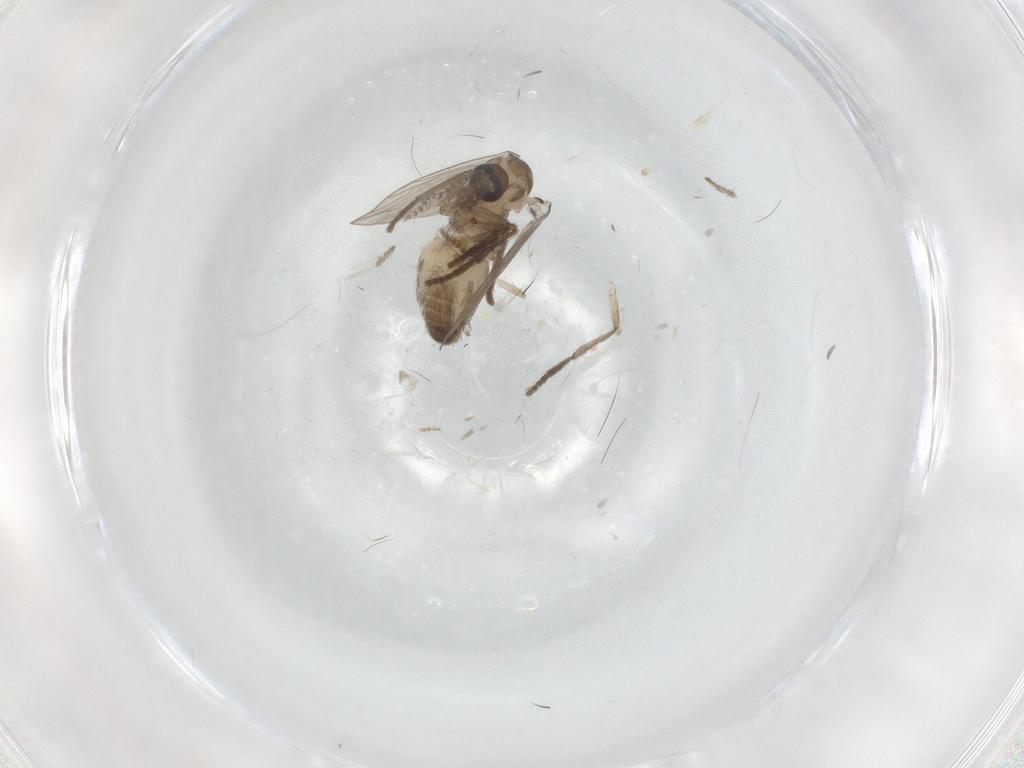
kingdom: Animalia
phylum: Arthropoda
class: Insecta
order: Diptera
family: Psychodidae
